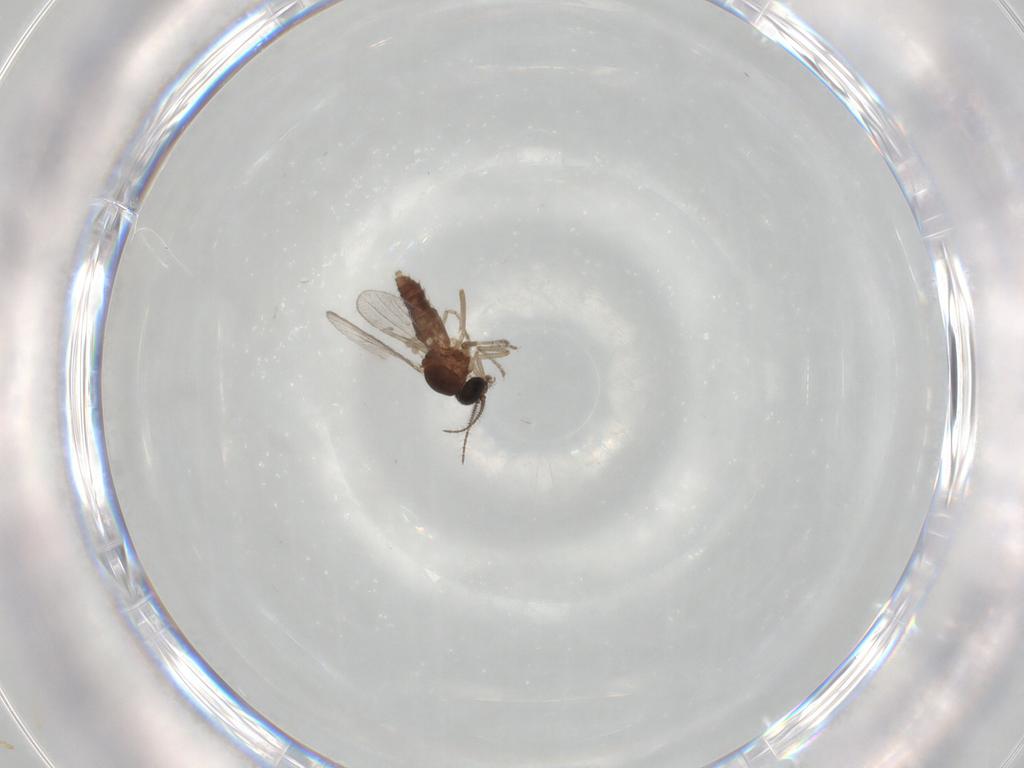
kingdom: Animalia
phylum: Arthropoda
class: Insecta
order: Diptera
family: Ceratopogonidae
